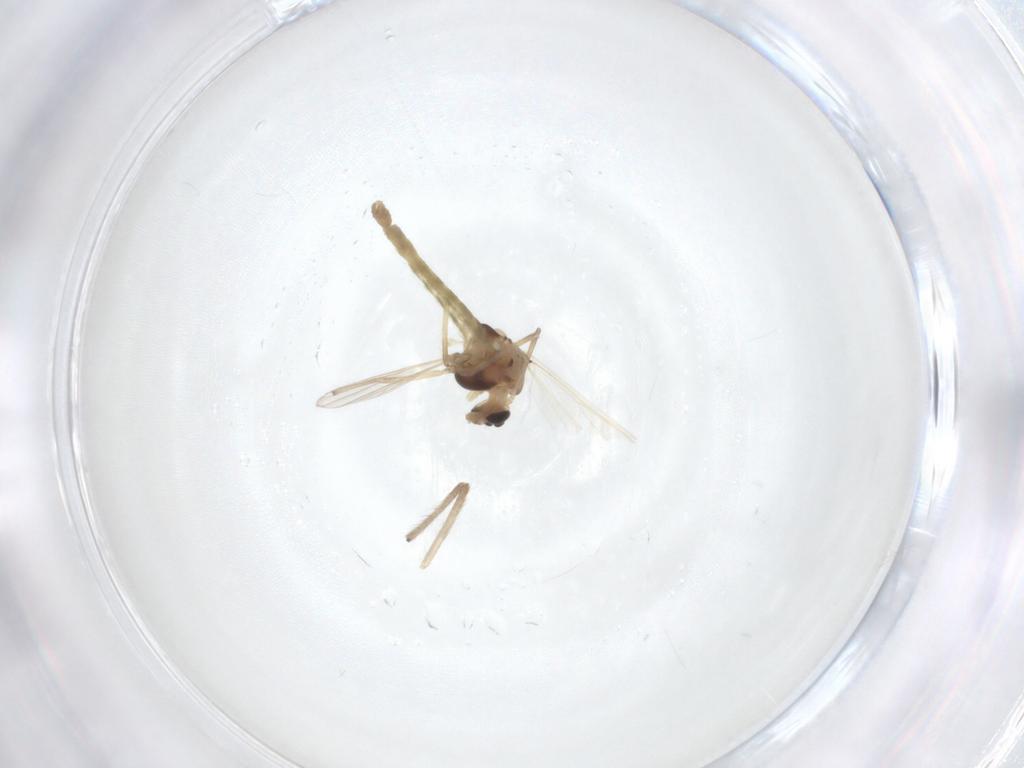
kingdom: Animalia
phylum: Arthropoda
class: Insecta
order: Diptera
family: Chironomidae
